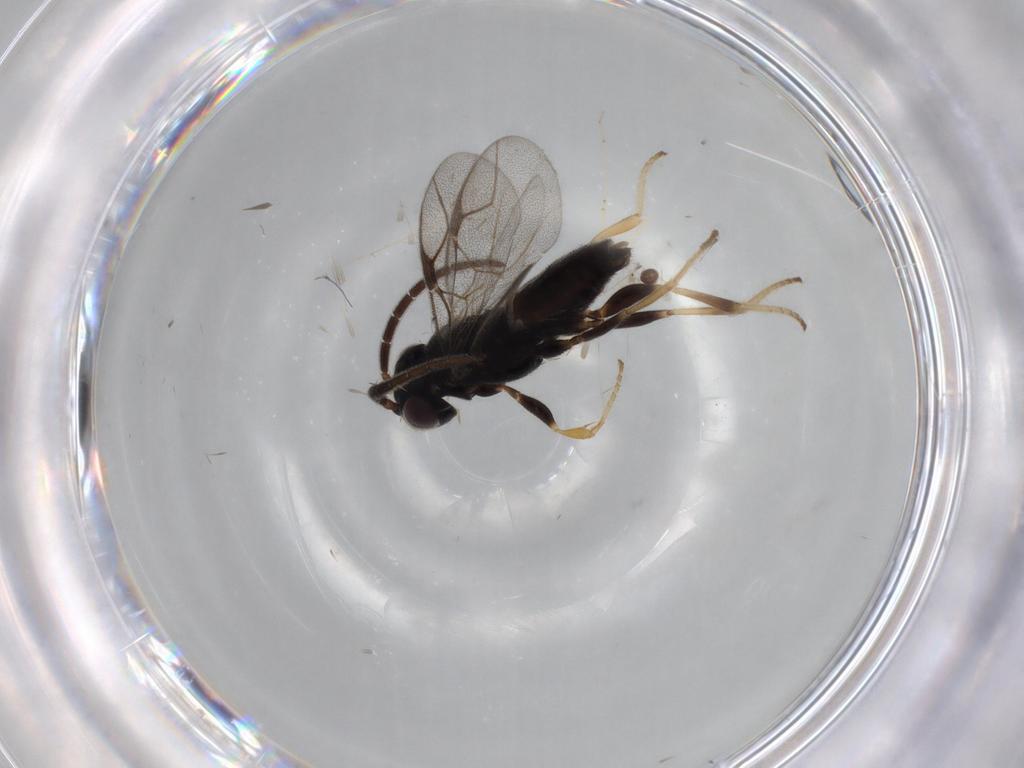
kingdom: Animalia
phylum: Arthropoda
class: Insecta
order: Hymenoptera
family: Dryinidae
